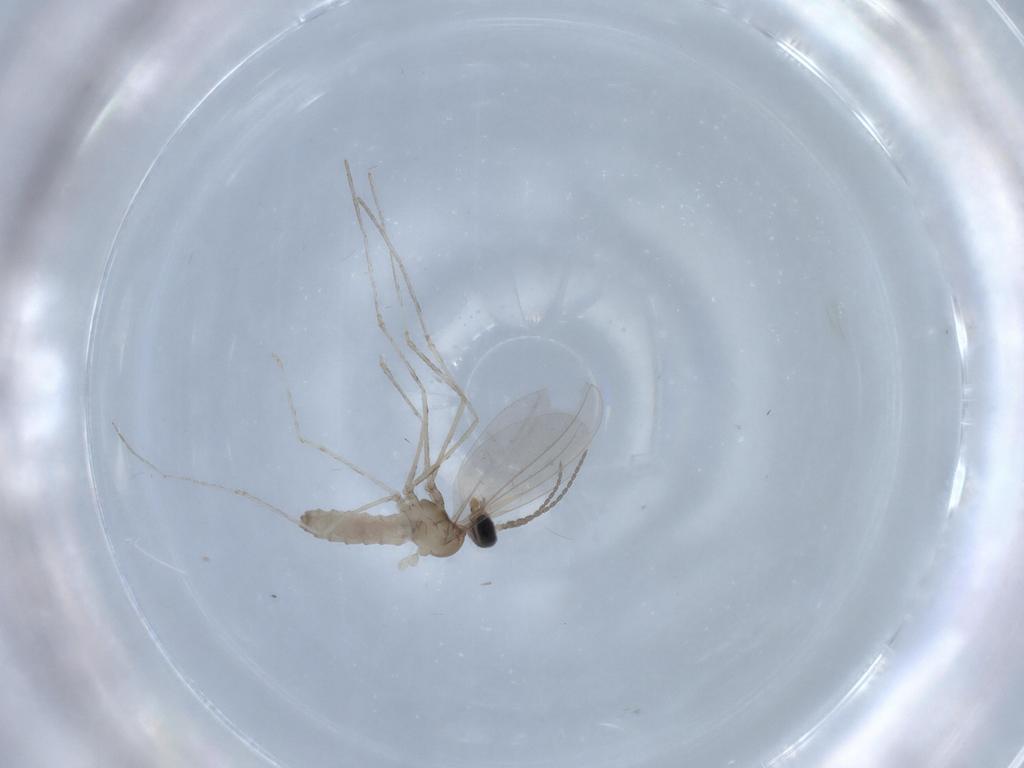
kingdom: Animalia
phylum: Arthropoda
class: Insecta
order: Diptera
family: Cecidomyiidae
